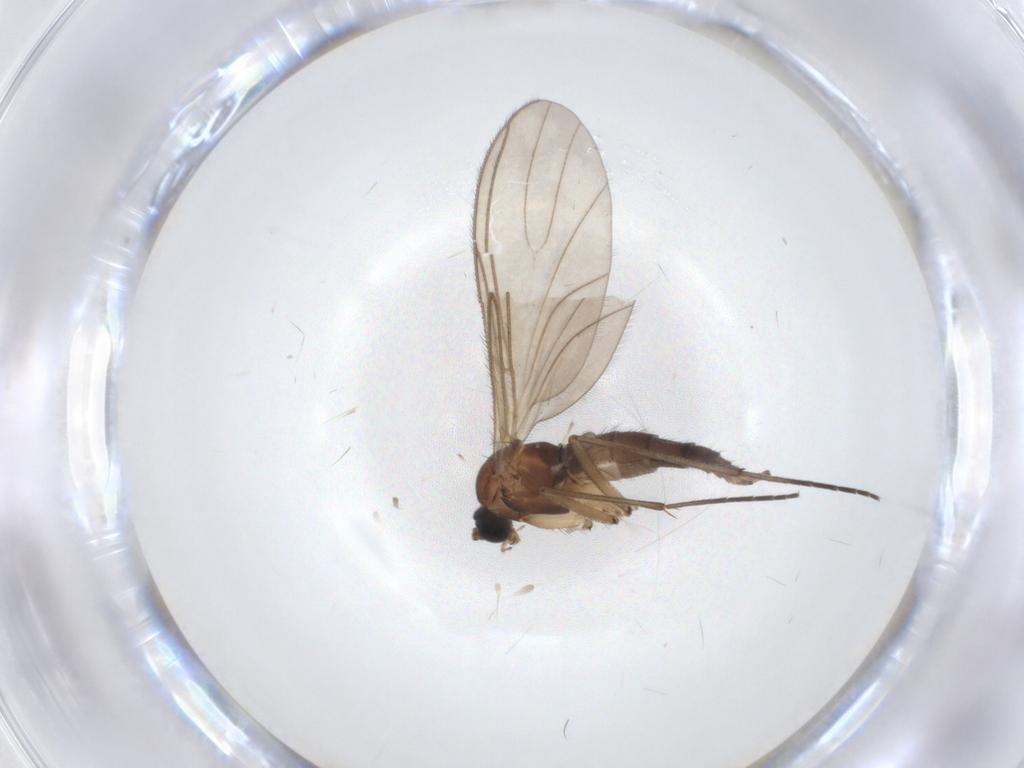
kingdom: Animalia
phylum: Arthropoda
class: Insecta
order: Diptera
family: Sciaridae
